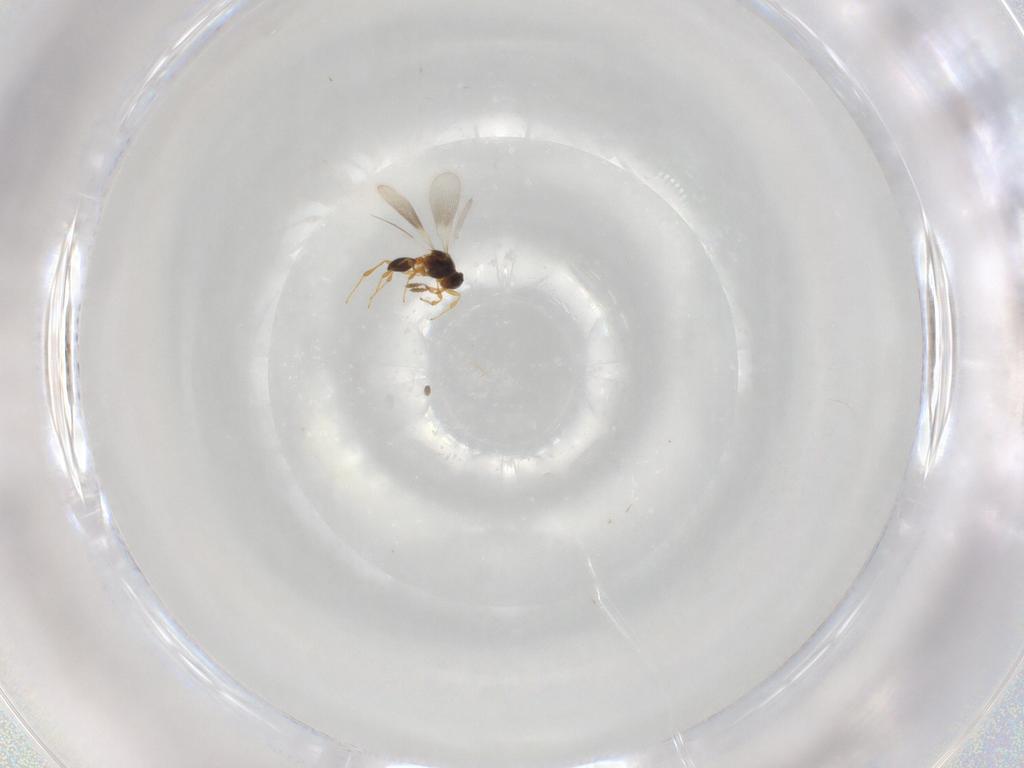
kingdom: Animalia
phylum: Arthropoda
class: Insecta
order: Hymenoptera
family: Platygastridae
